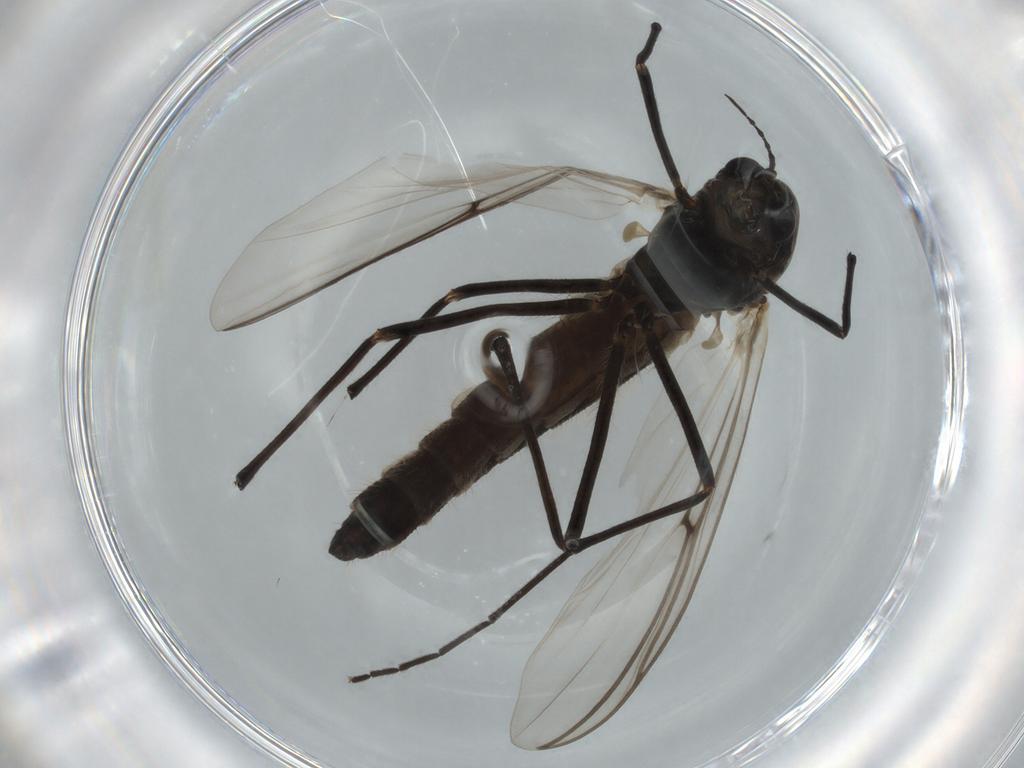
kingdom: Animalia
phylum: Arthropoda
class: Insecta
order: Diptera
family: Chironomidae
